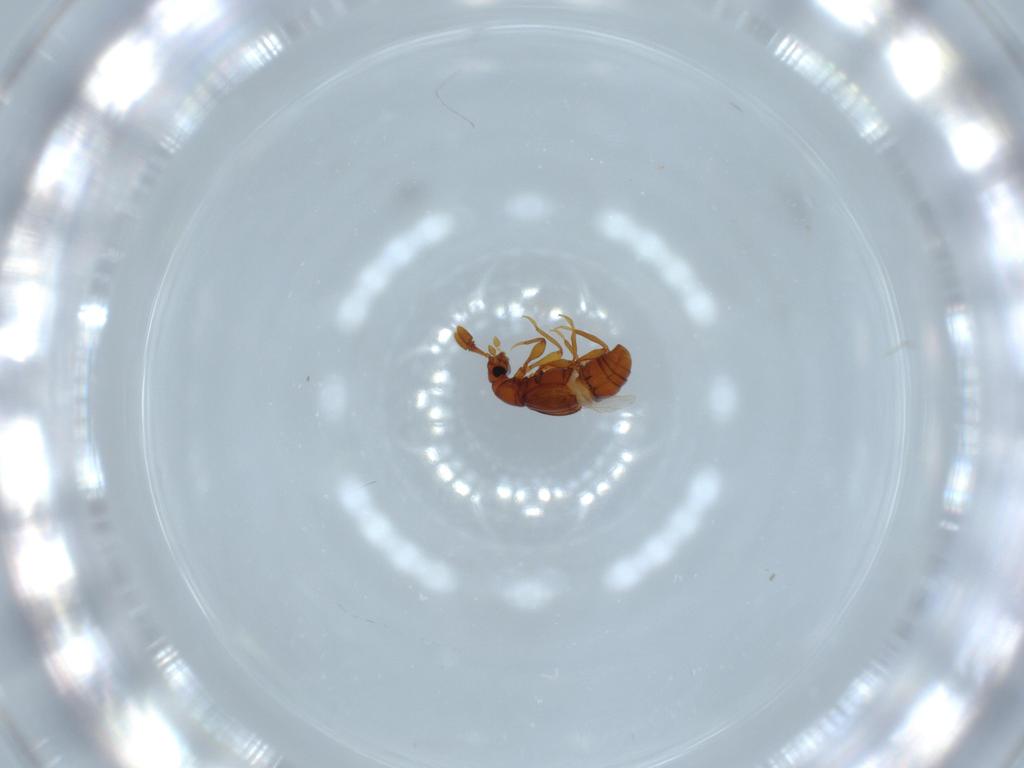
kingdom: Animalia
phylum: Arthropoda
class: Insecta
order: Coleoptera
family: Staphylinidae
